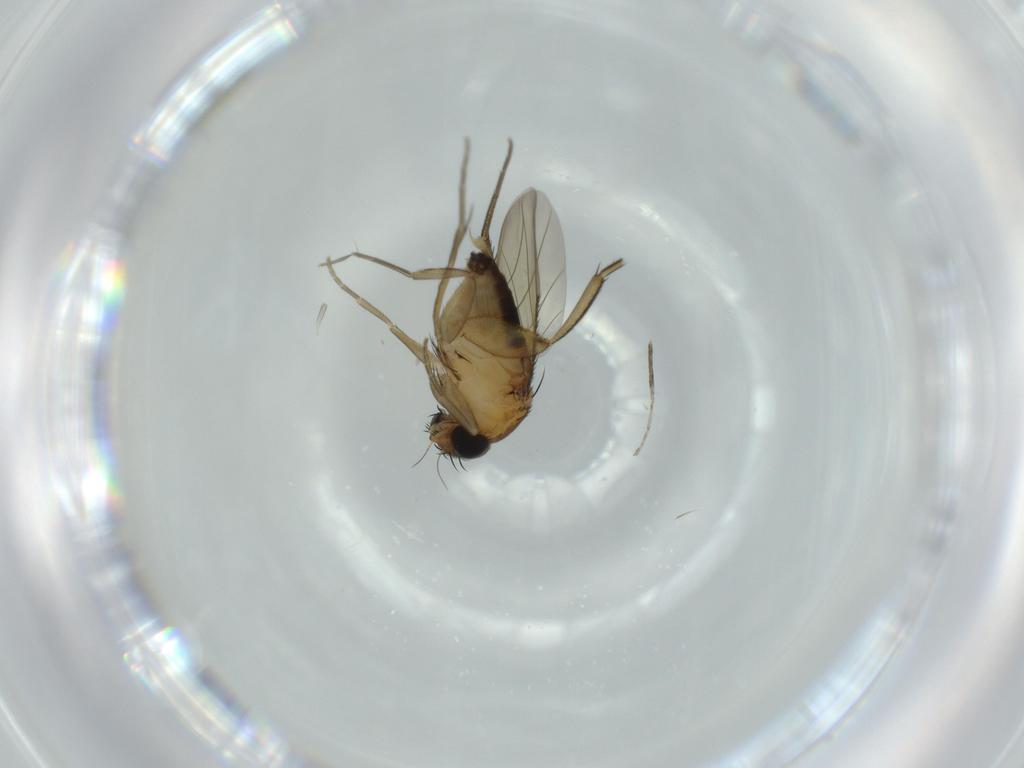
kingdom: Animalia
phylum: Arthropoda
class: Insecta
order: Diptera
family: Phoridae
